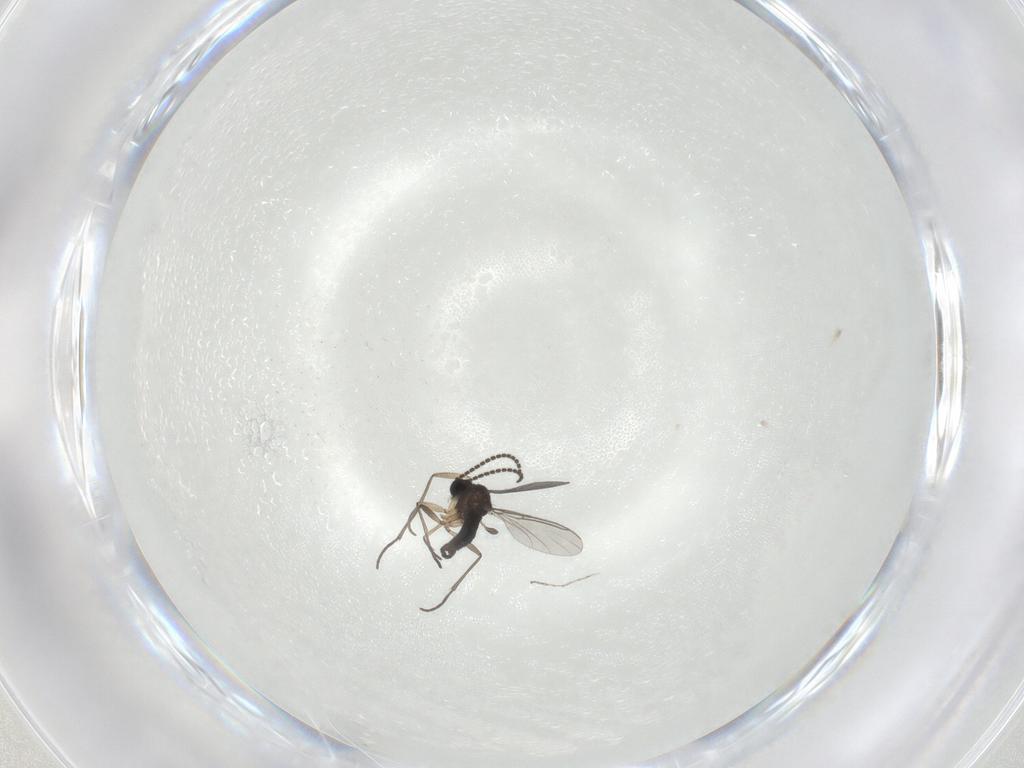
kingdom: Animalia
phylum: Arthropoda
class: Insecta
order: Diptera
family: Sciaridae
